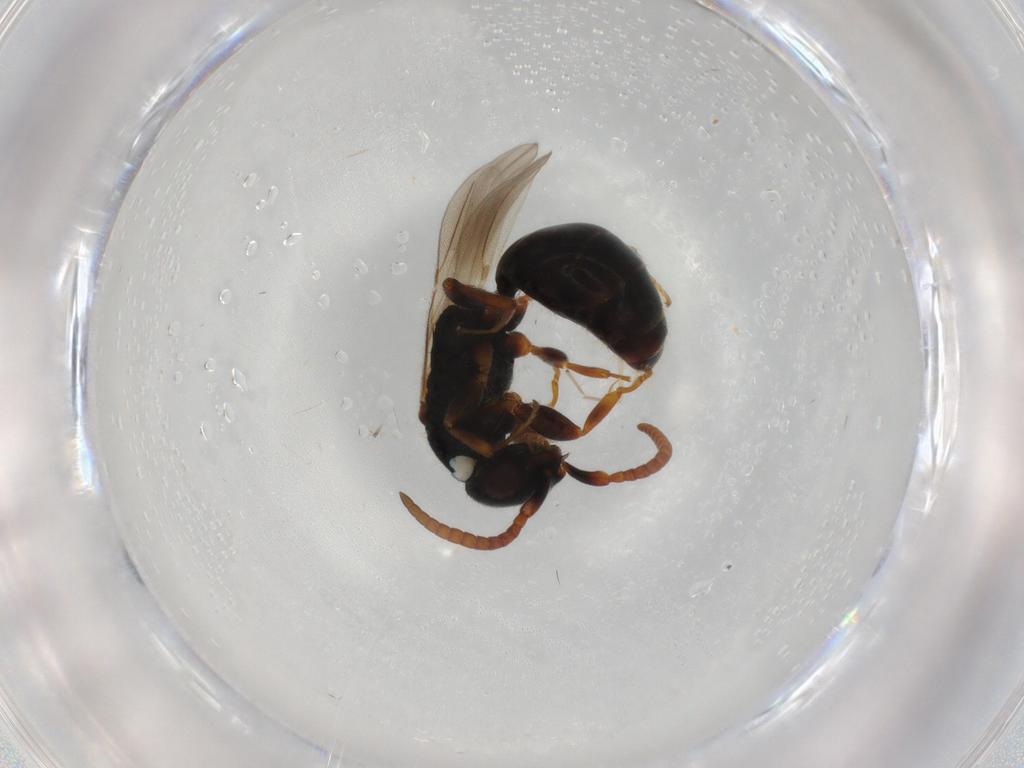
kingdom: Animalia
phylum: Arthropoda
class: Insecta
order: Hymenoptera
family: Bethylidae
